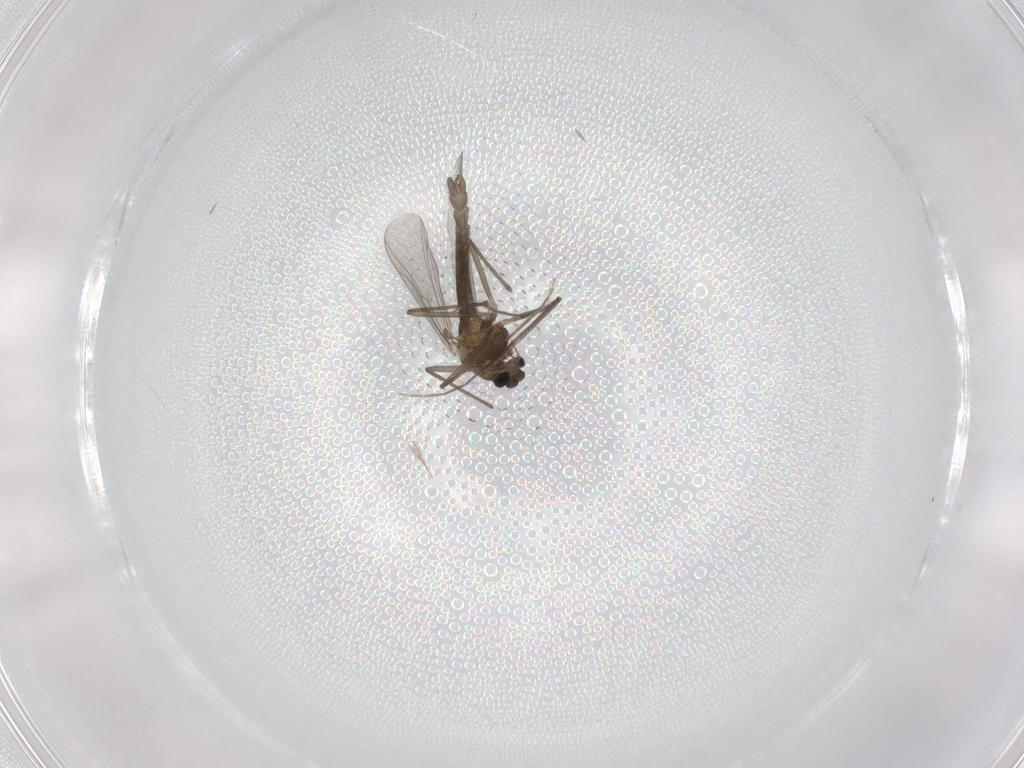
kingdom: Animalia
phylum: Arthropoda
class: Insecta
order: Diptera
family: Chironomidae
